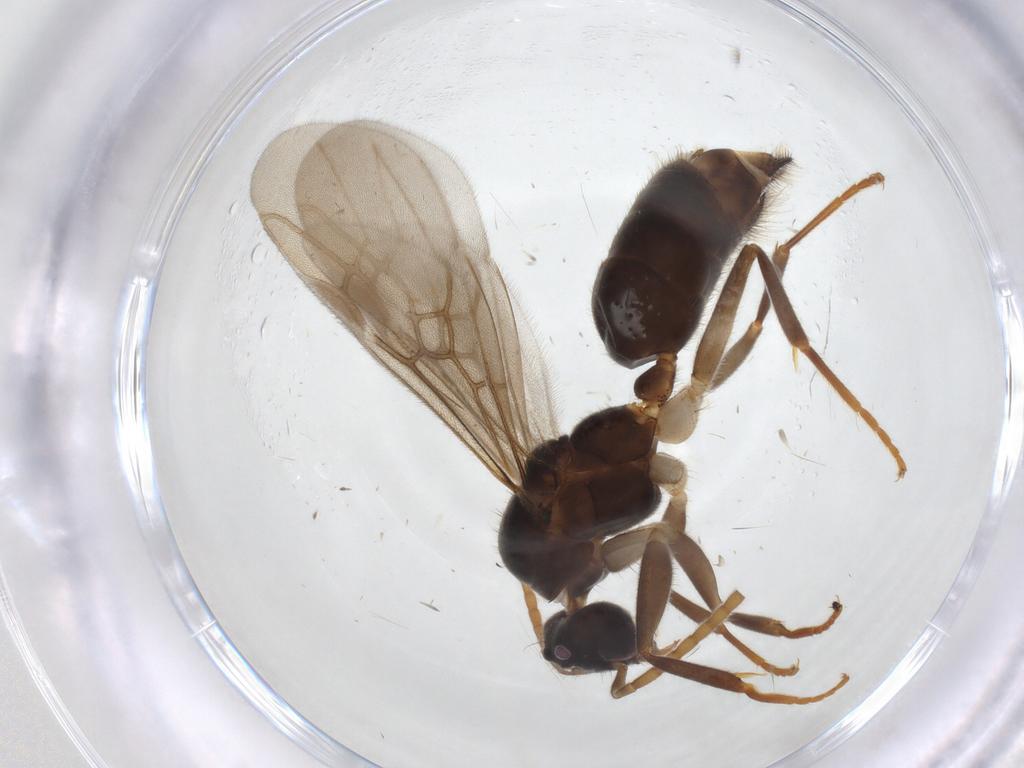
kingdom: Animalia
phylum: Arthropoda
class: Insecta
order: Hymenoptera
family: Formicidae
